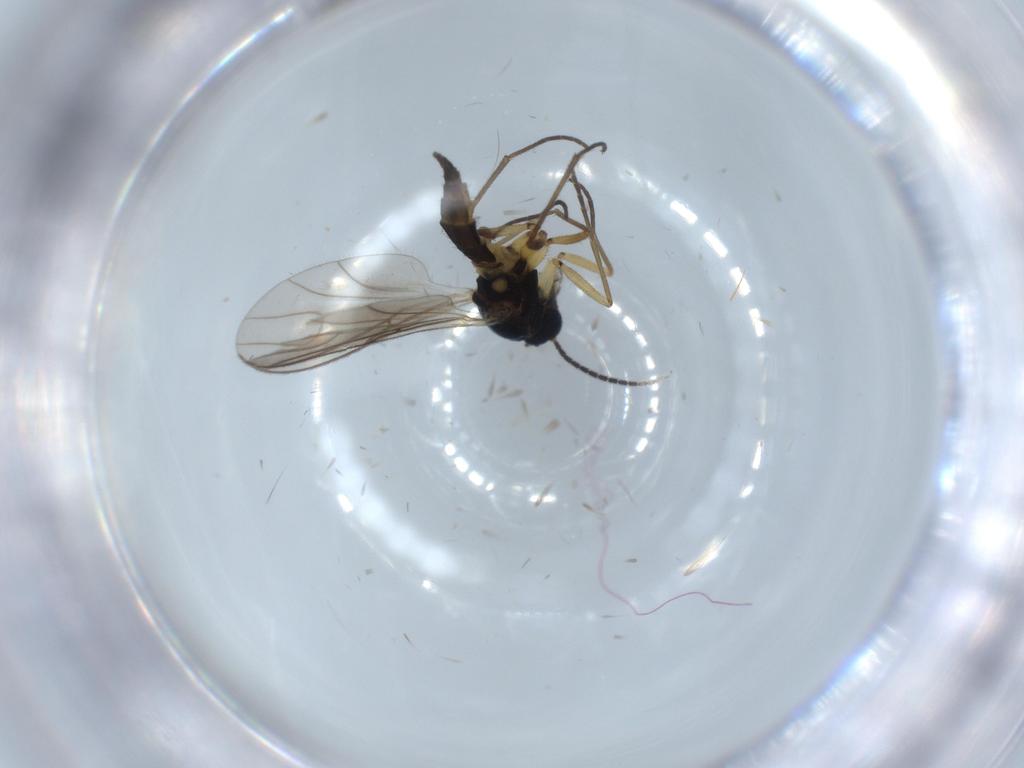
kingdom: Animalia
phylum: Arthropoda
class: Insecta
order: Diptera
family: Sciaridae
